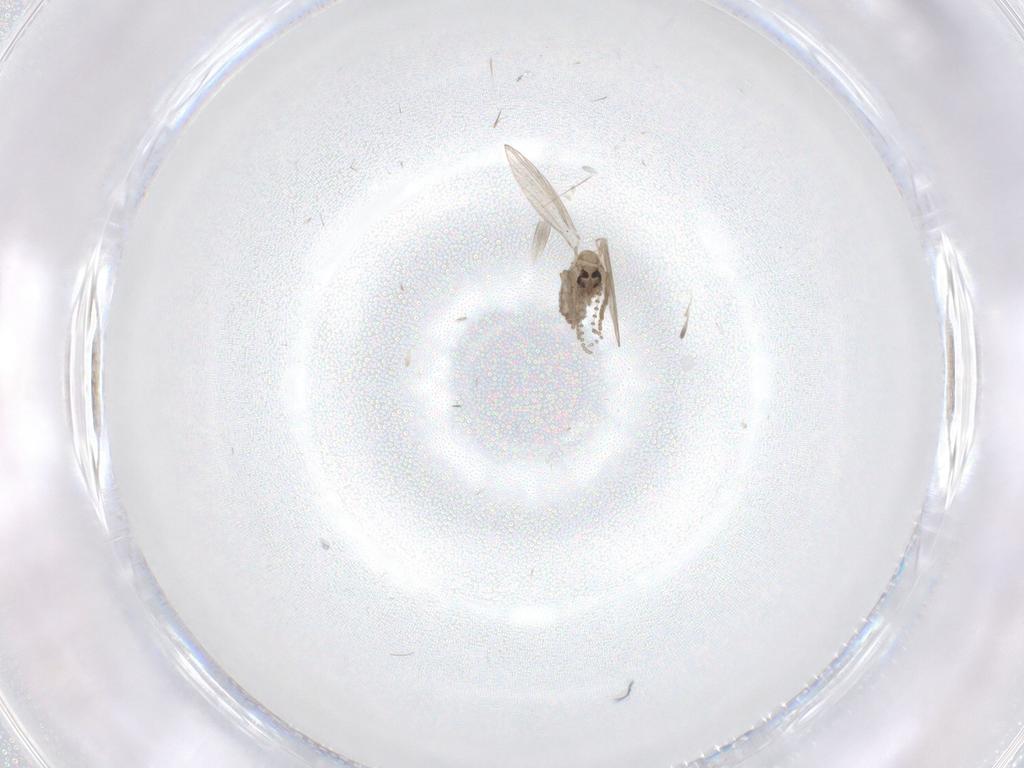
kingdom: Animalia
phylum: Arthropoda
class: Insecta
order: Diptera
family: Psychodidae
